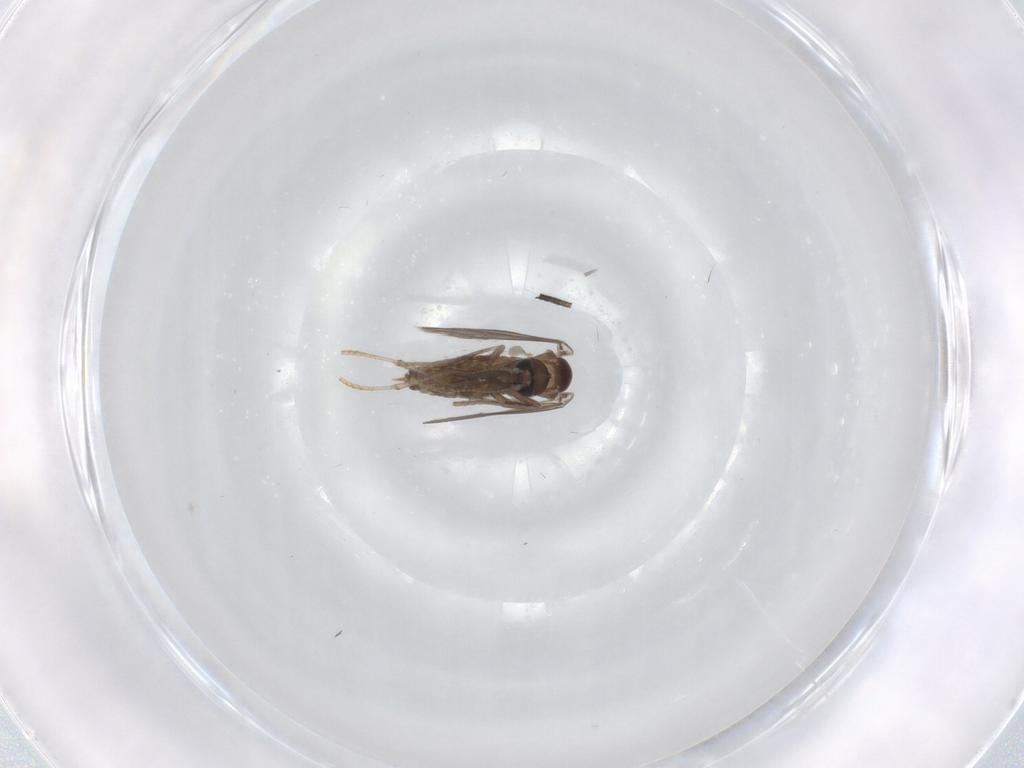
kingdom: Animalia
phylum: Arthropoda
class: Insecta
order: Diptera
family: Psychodidae
